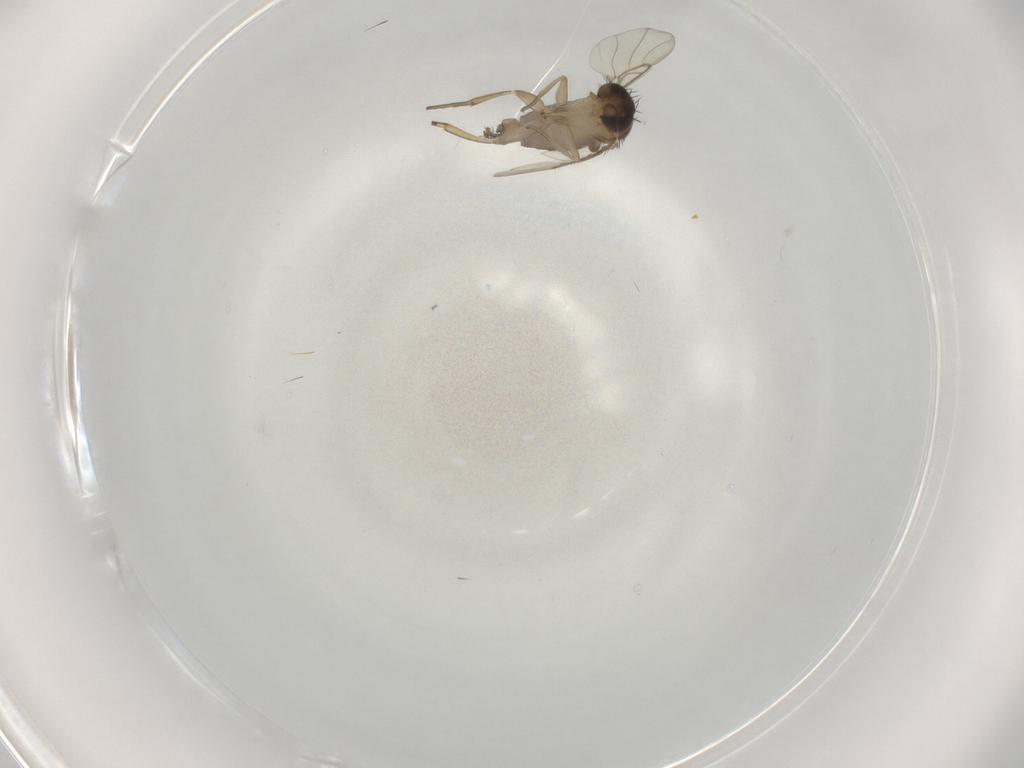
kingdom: Animalia
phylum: Arthropoda
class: Insecta
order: Diptera
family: Phoridae
